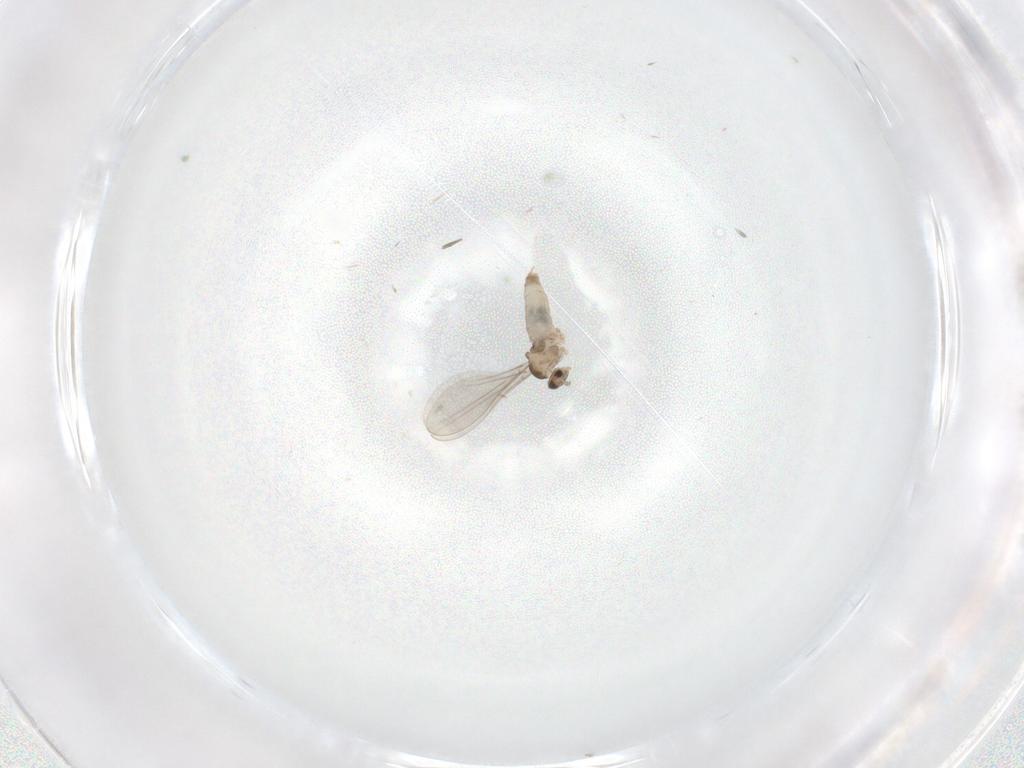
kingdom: Animalia
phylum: Arthropoda
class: Insecta
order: Diptera
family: Cecidomyiidae
